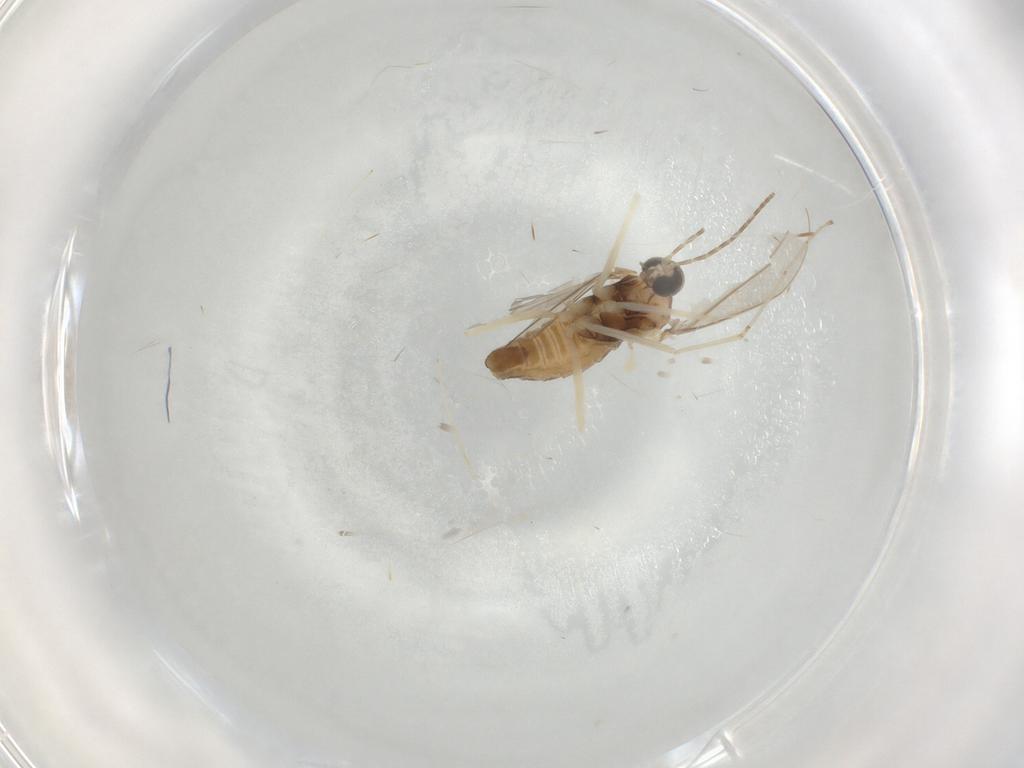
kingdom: Animalia
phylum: Arthropoda
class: Insecta
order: Diptera
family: Cecidomyiidae
